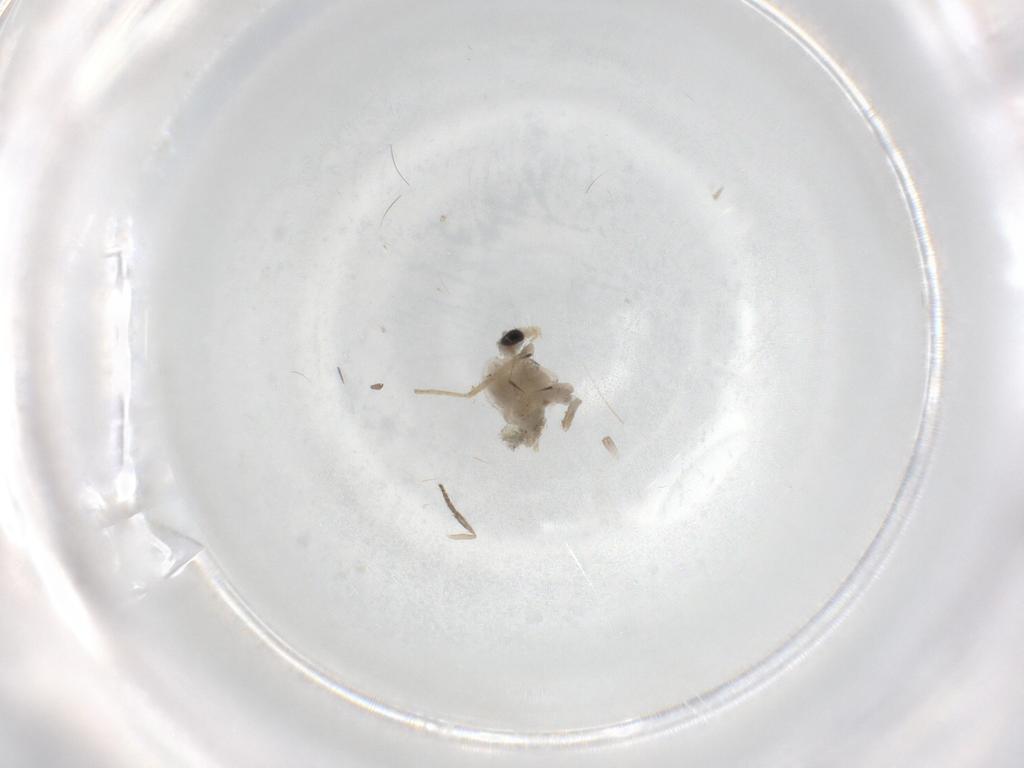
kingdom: Animalia
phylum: Arthropoda
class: Insecta
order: Diptera
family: Chironomidae
